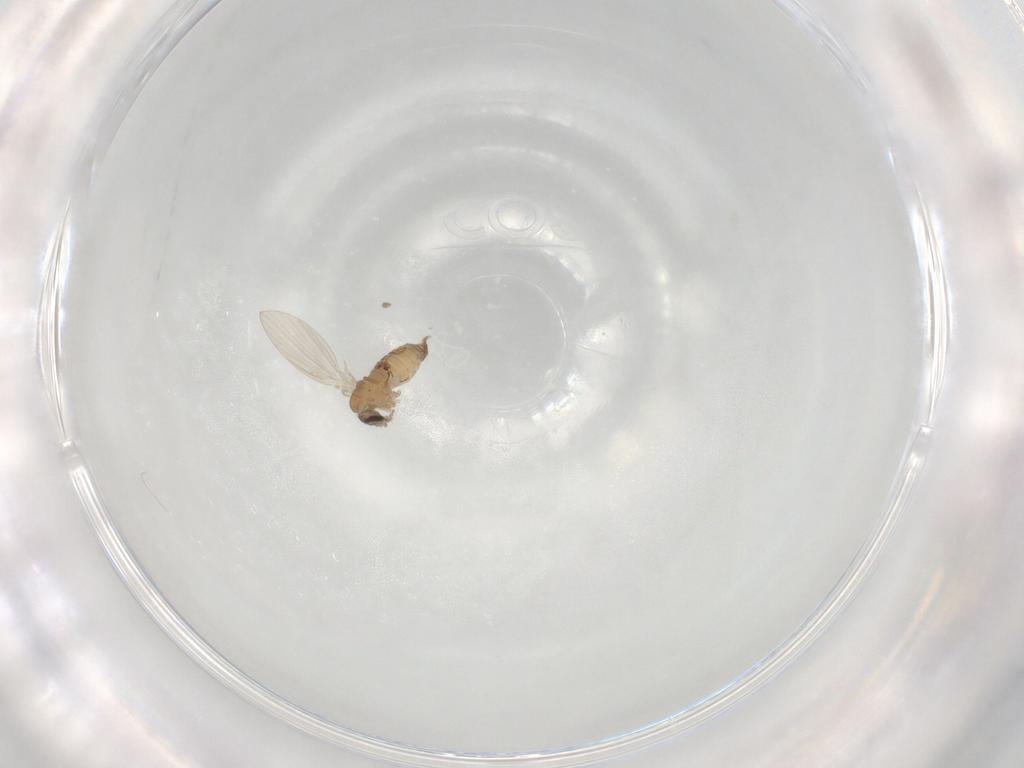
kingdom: Animalia
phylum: Arthropoda
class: Insecta
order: Diptera
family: Psychodidae
